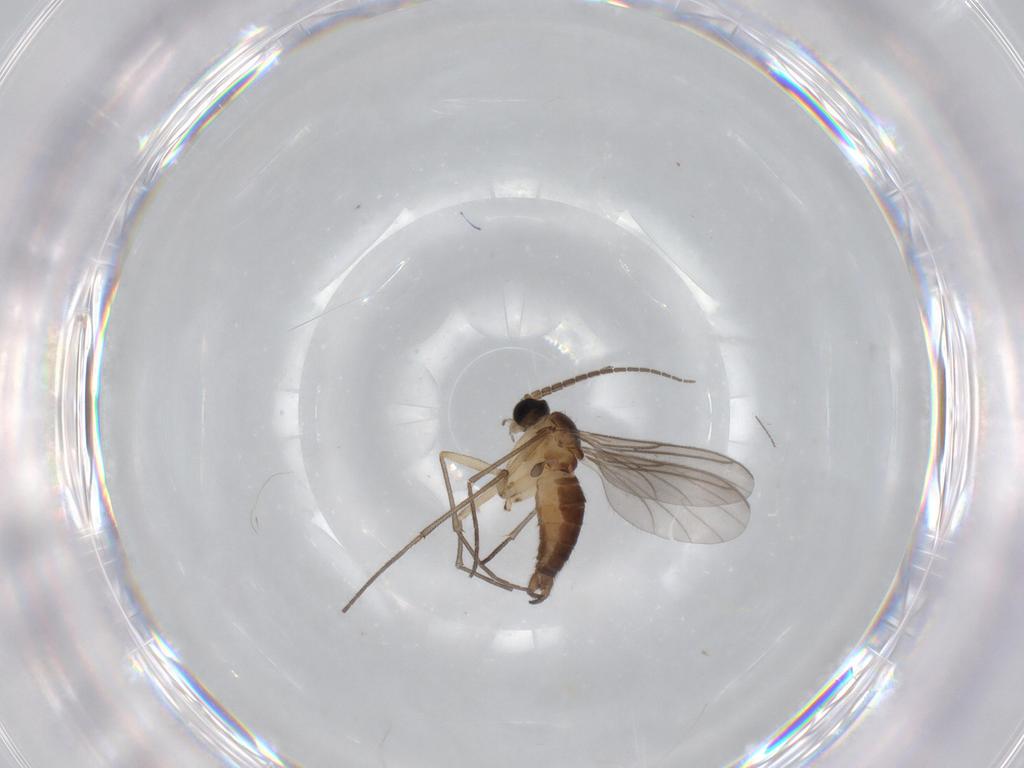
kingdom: Animalia
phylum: Arthropoda
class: Insecta
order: Diptera
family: Sciaridae
